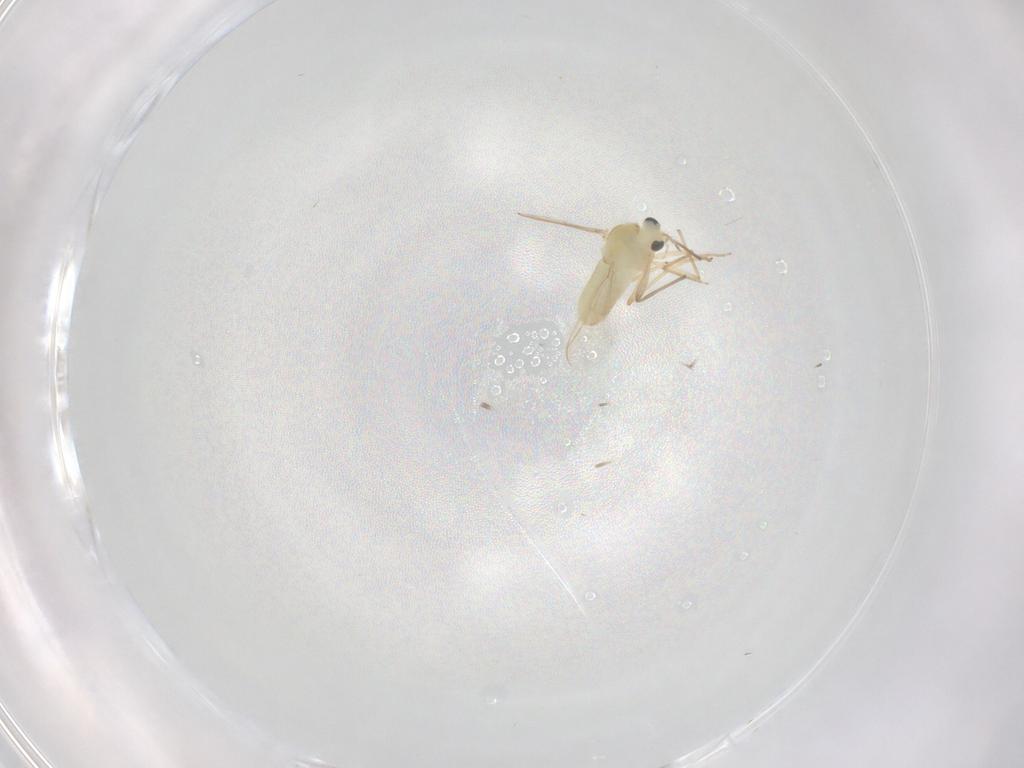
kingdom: Animalia
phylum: Arthropoda
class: Insecta
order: Diptera
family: Chironomidae
